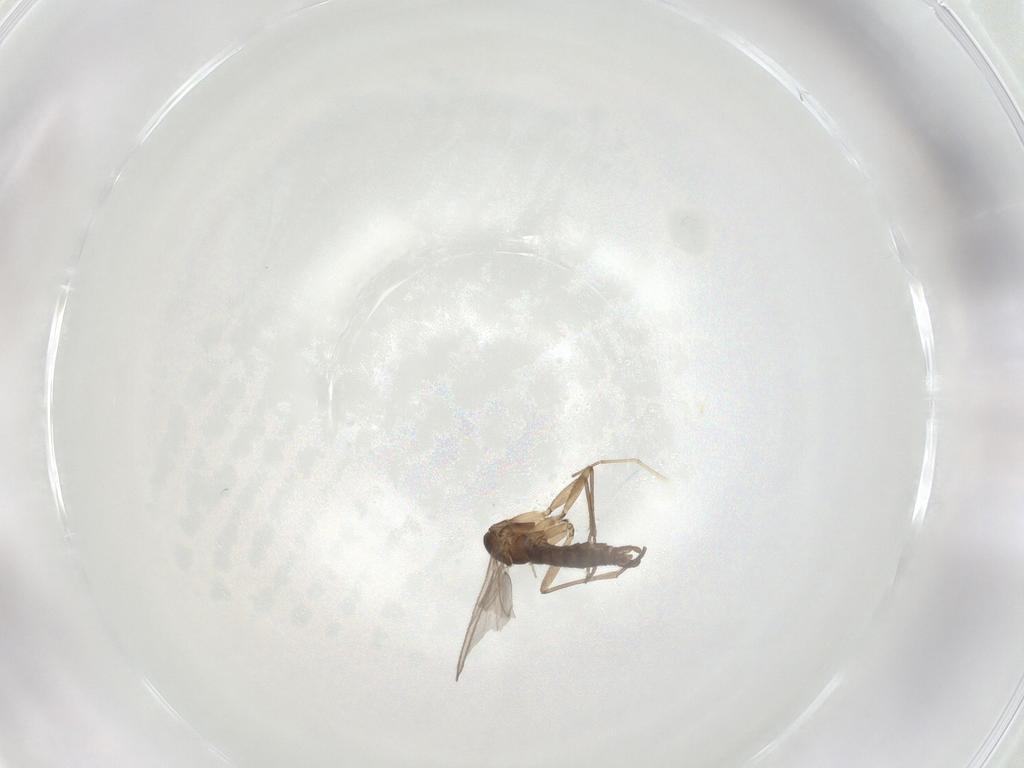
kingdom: Animalia
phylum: Arthropoda
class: Insecta
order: Diptera
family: Sciaridae
